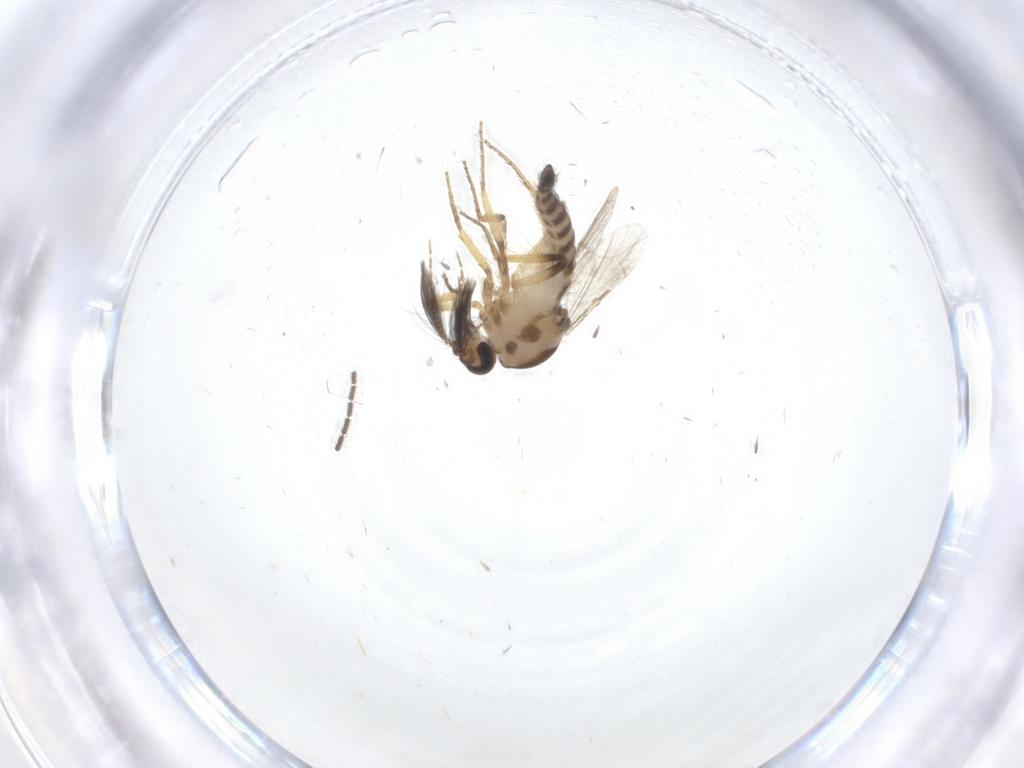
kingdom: Animalia
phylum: Arthropoda
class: Insecta
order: Diptera
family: Ceratopogonidae
